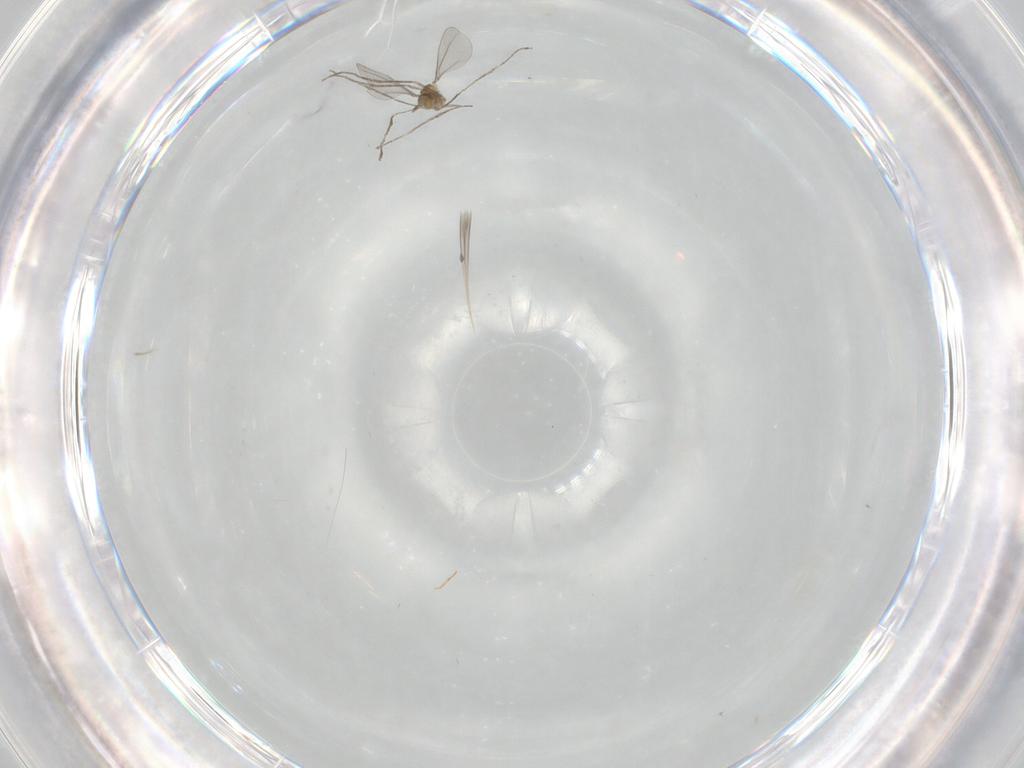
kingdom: Animalia
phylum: Arthropoda
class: Insecta
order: Diptera
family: Cecidomyiidae
